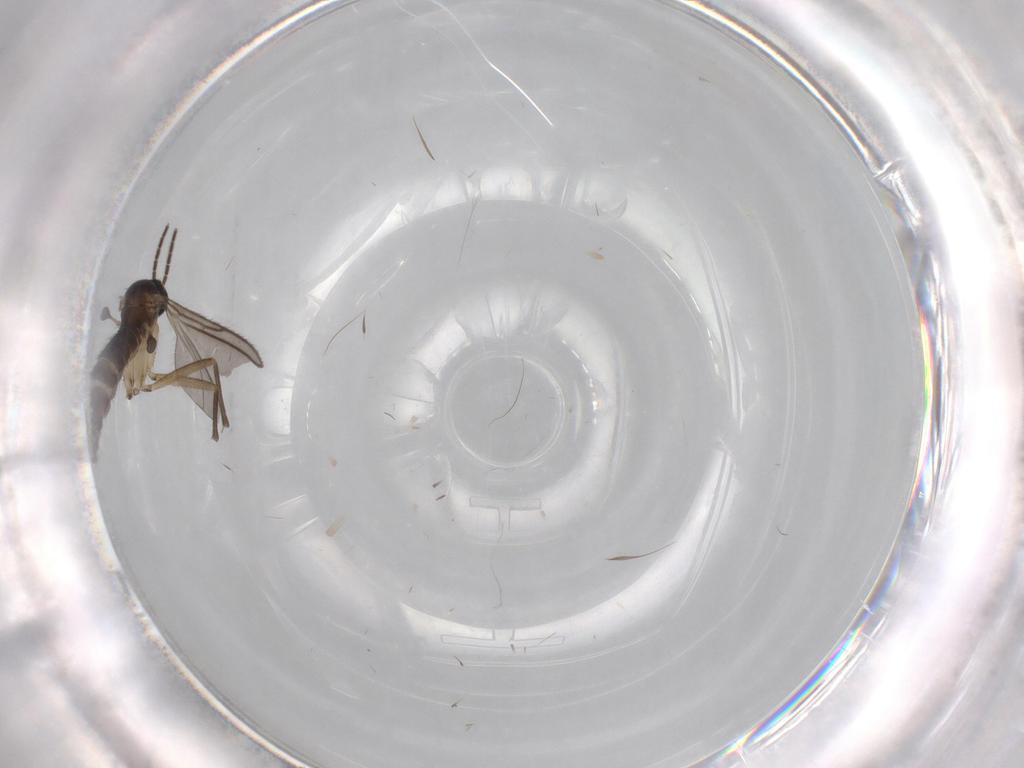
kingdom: Animalia
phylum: Arthropoda
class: Insecta
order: Diptera
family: Sciaridae
